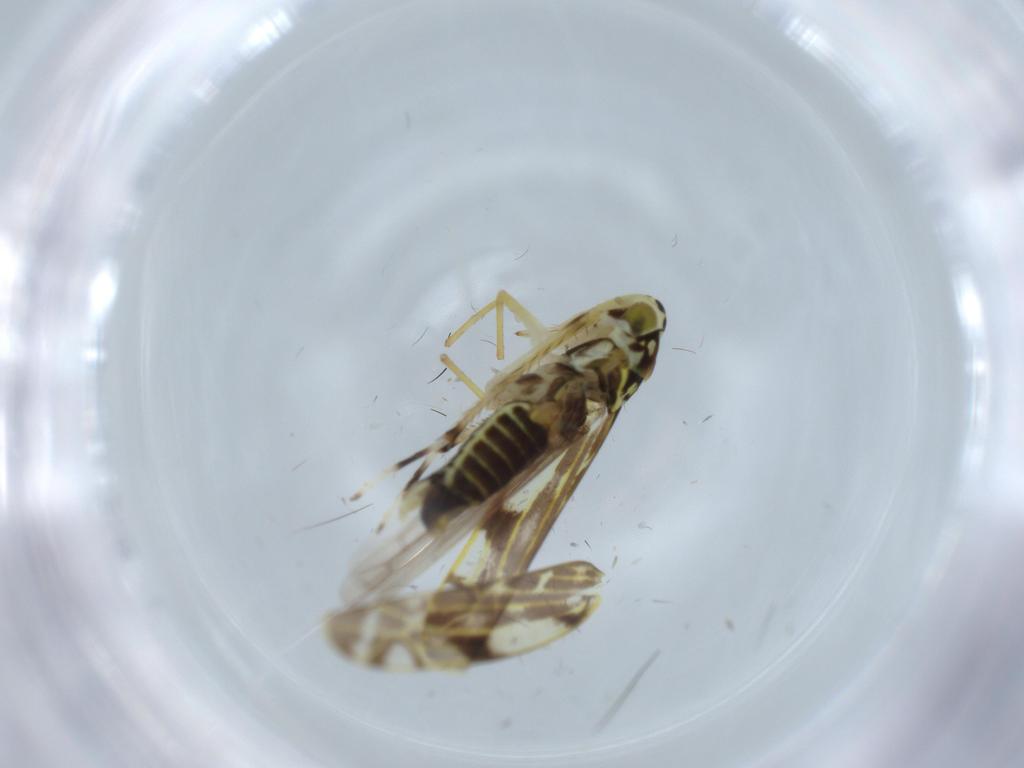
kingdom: Animalia
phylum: Arthropoda
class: Insecta
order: Hemiptera
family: Cicadellidae
